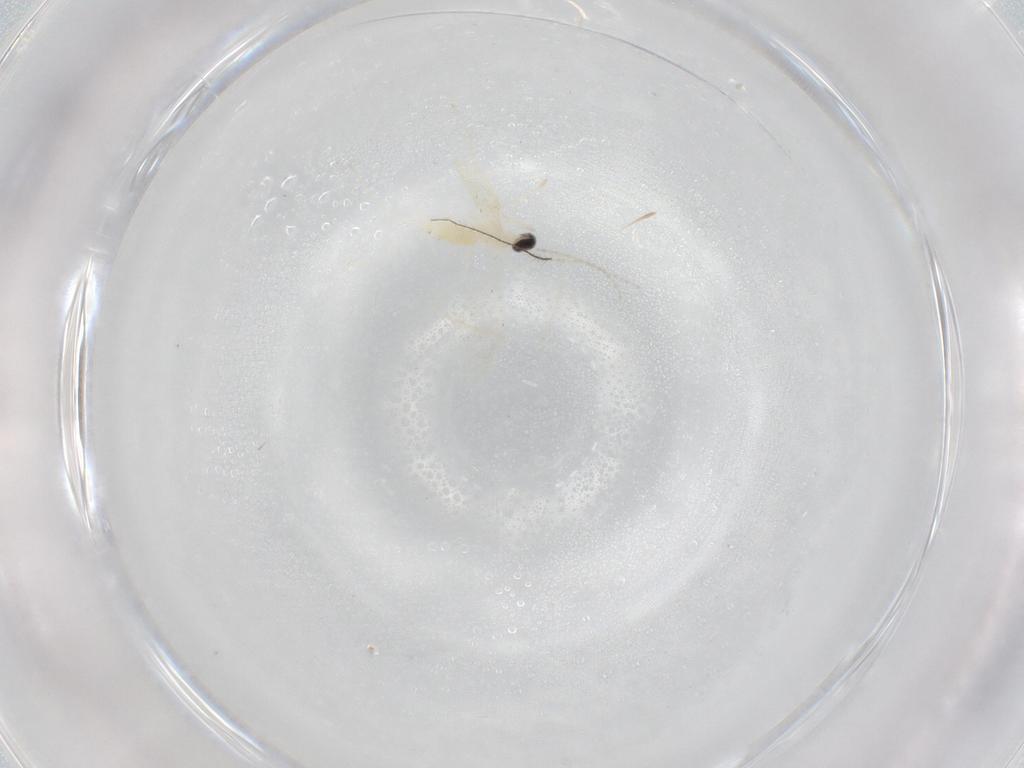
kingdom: Animalia
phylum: Arthropoda
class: Insecta
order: Diptera
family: Cecidomyiidae
